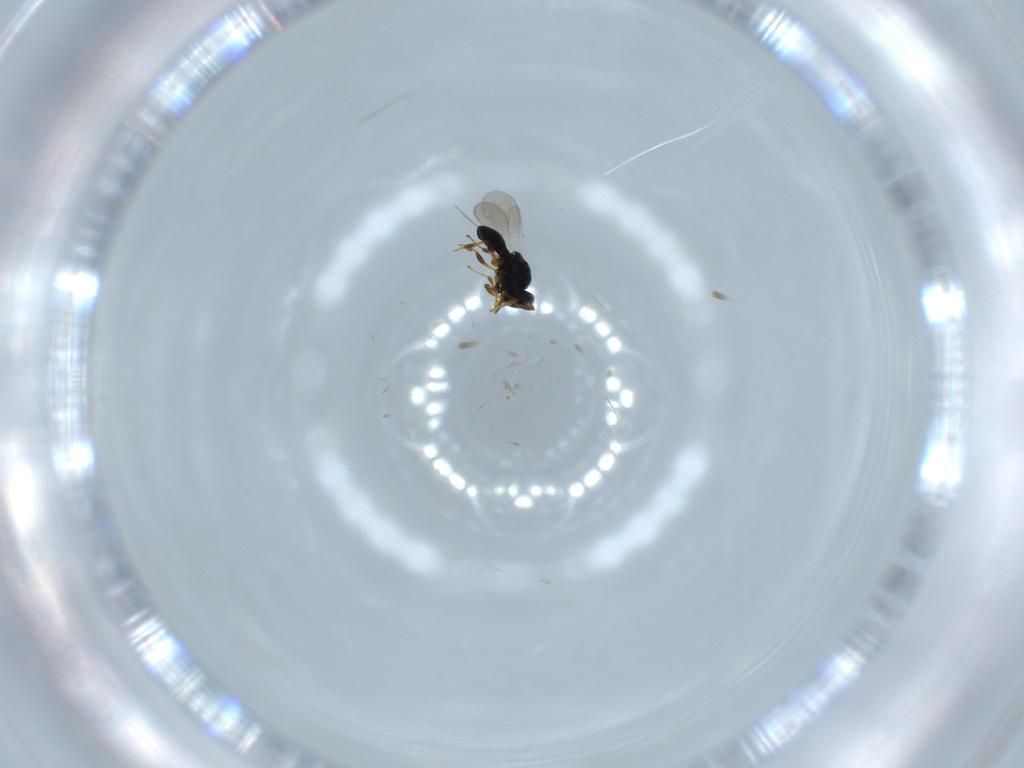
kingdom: Animalia
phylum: Arthropoda
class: Insecta
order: Hymenoptera
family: Platygastridae
